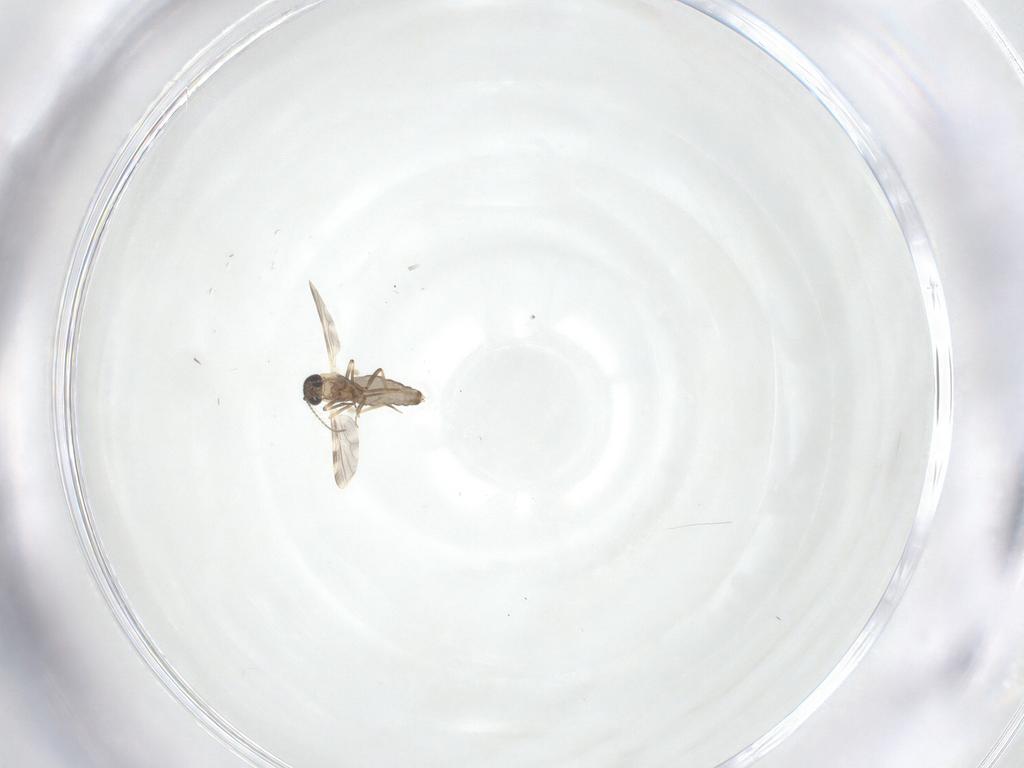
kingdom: Animalia
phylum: Arthropoda
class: Insecta
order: Diptera
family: Ceratopogonidae
